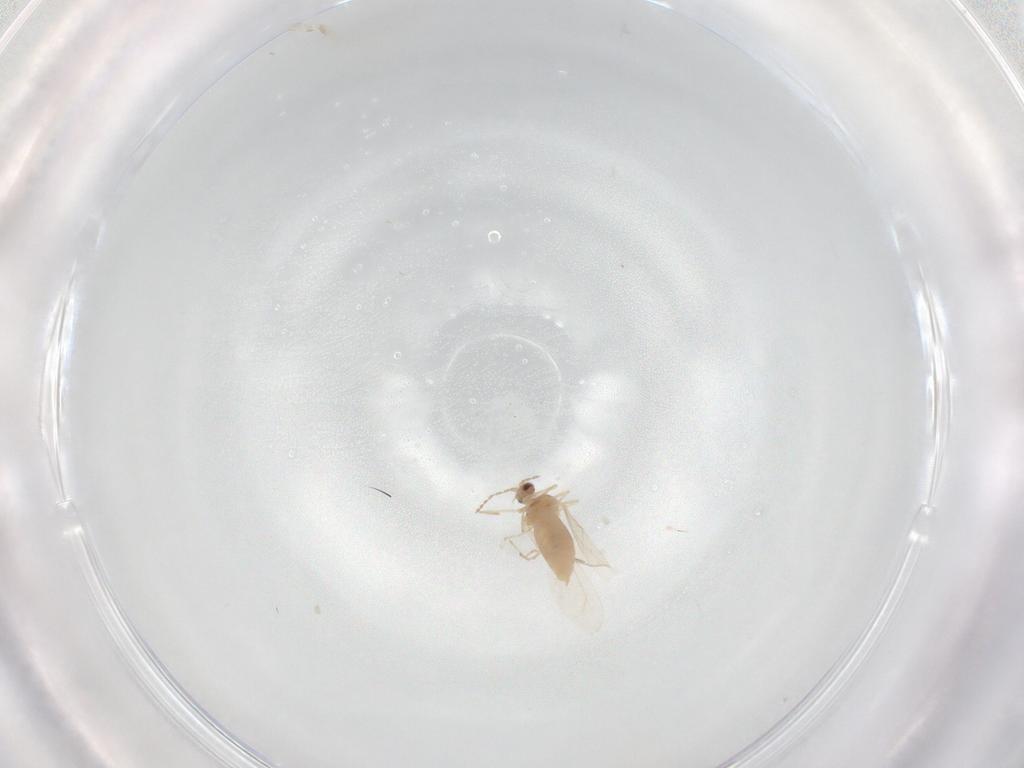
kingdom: Animalia
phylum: Arthropoda
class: Insecta
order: Diptera
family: Cecidomyiidae
